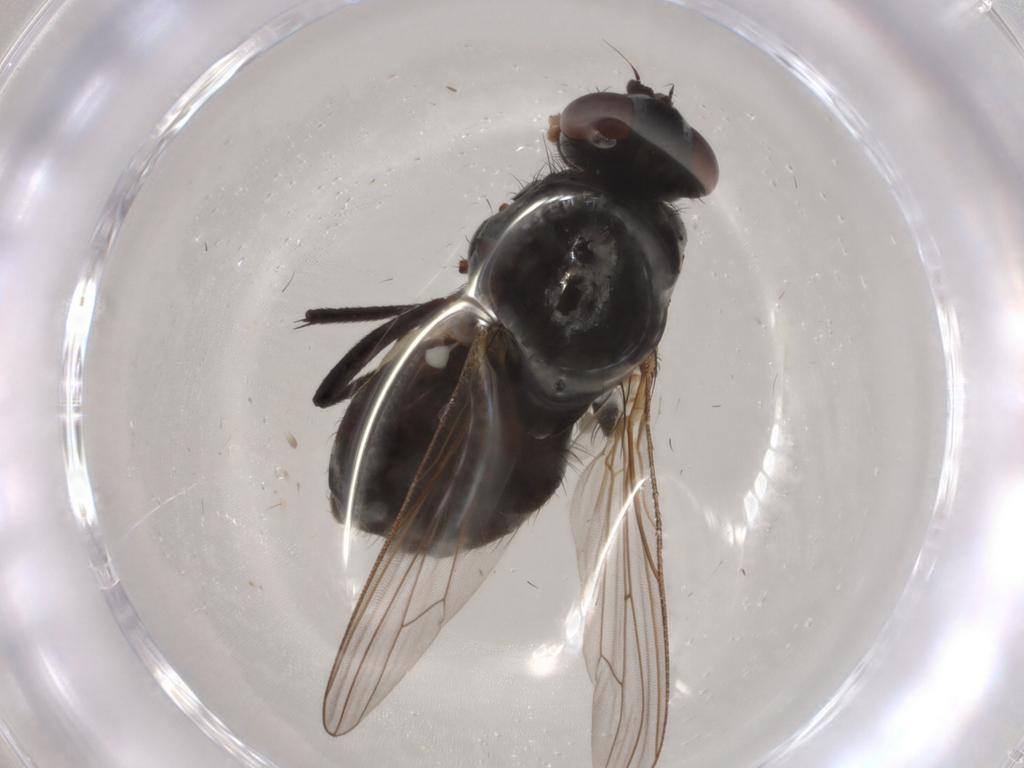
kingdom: Animalia
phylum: Arthropoda
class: Insecta
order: Diptera
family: Anthomyiidae
